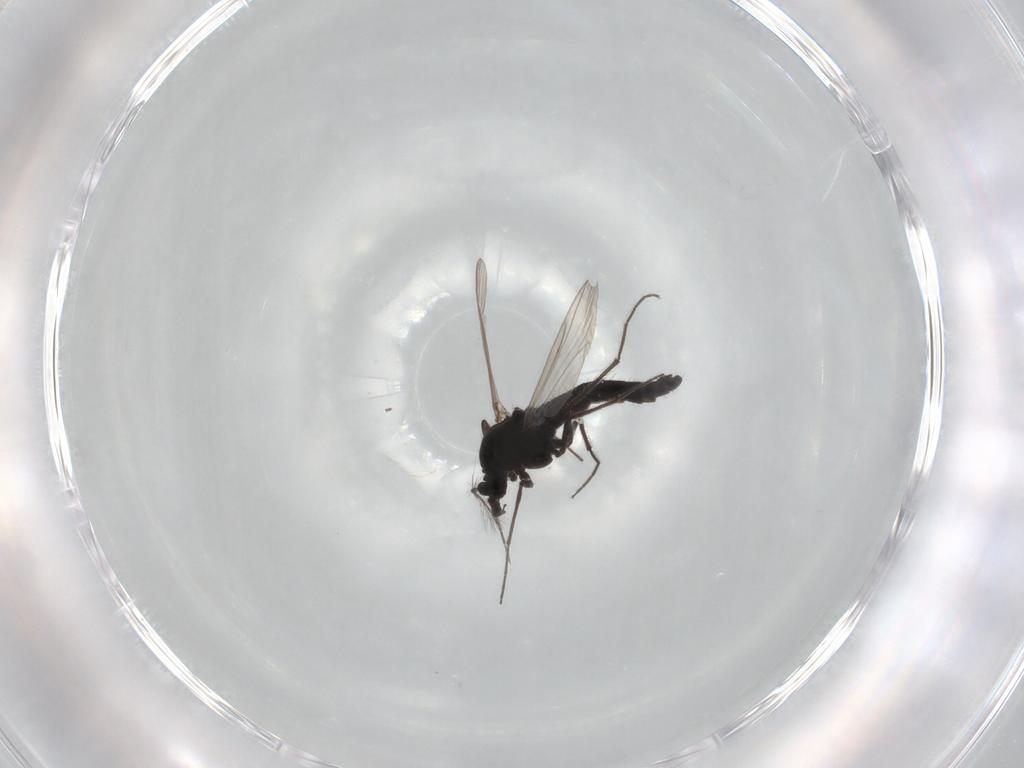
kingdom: Animalia
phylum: Arthropoda
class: Insecta
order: Diptera
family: Chironomidae
